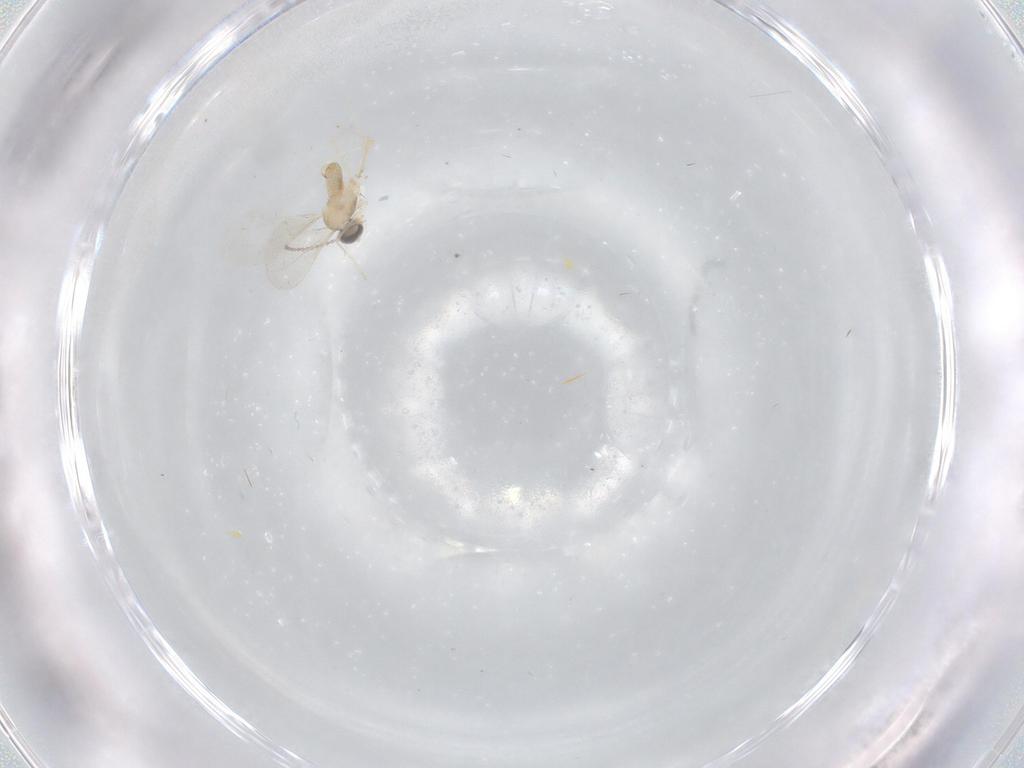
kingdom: Animalia
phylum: Arthropoda
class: Insecta
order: Diptera
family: Cecidomyiidae
